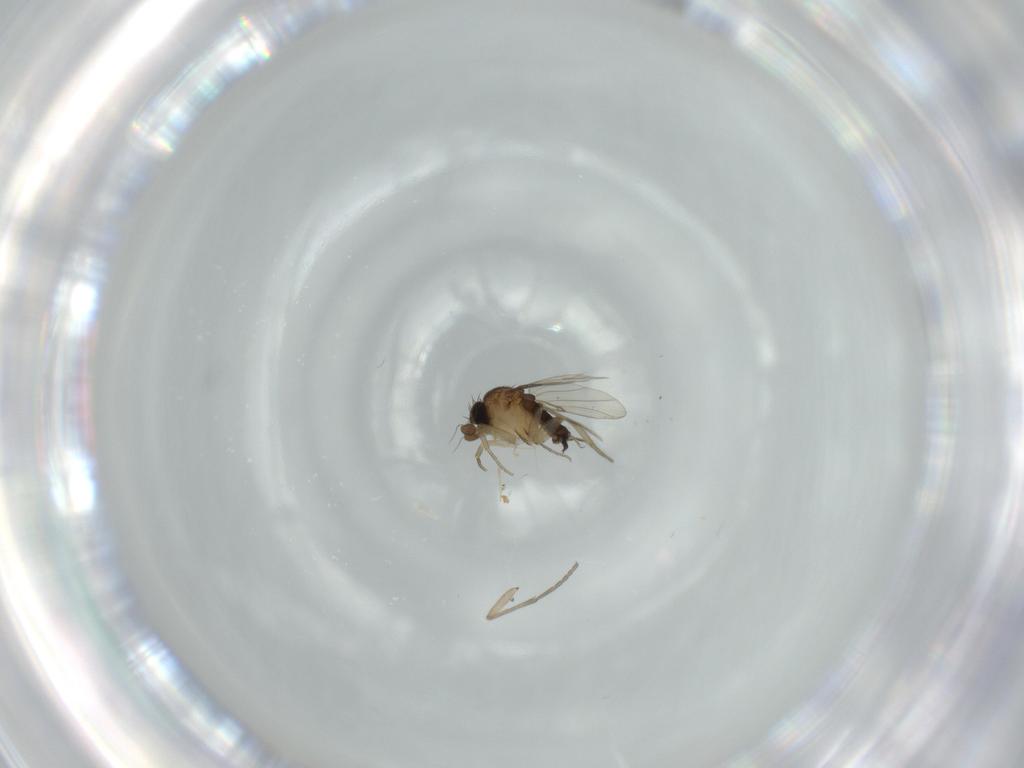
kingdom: Animalia
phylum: Arthropoda
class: Insecta
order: Diptera
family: Phoridae
